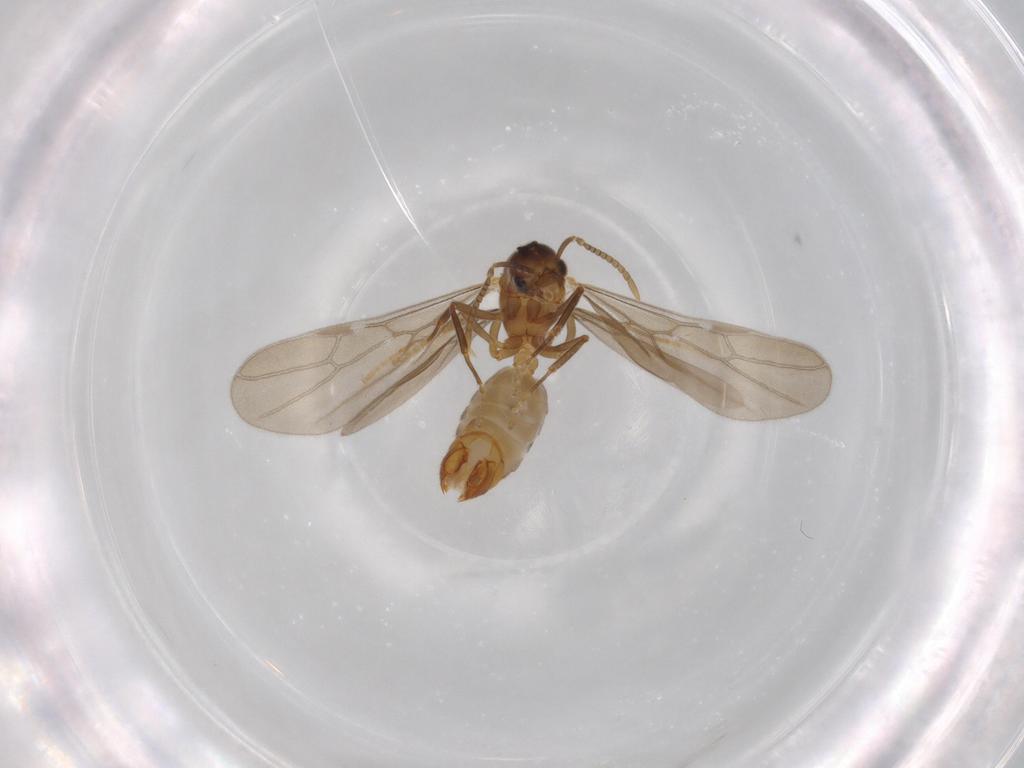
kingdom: Animalia
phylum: Arthropoda
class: Insecta
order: Hymenoptera
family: Formicidae
